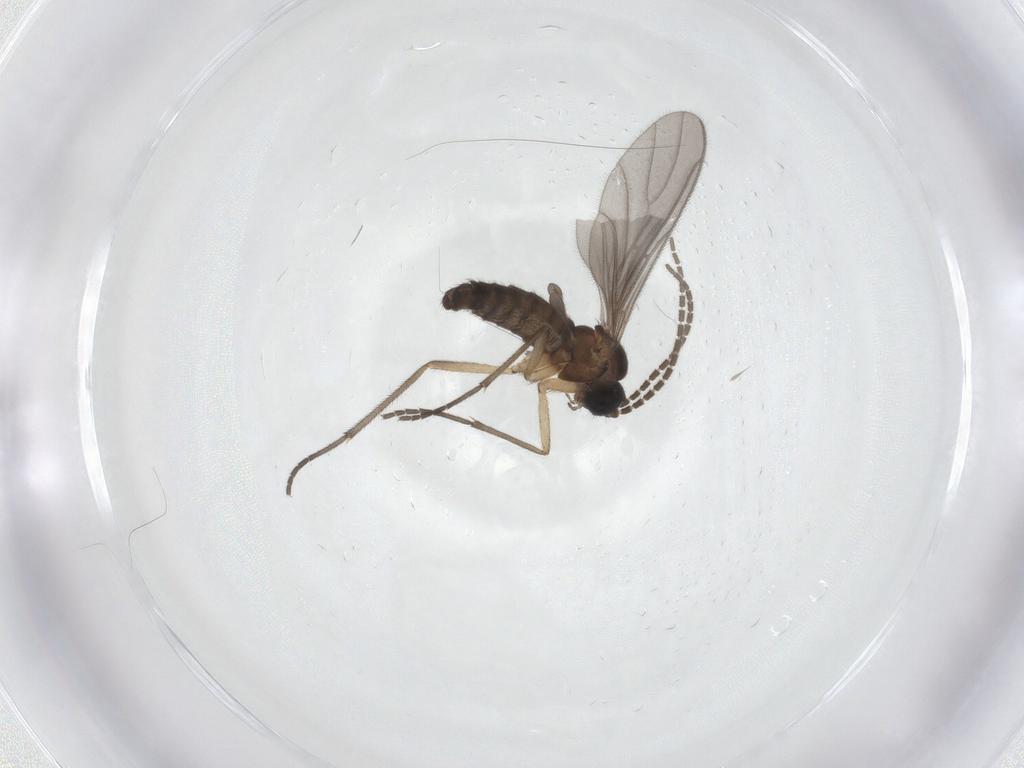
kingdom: Animalia
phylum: Arthropoda
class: Insecta
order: Diptera
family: Sciaridae
